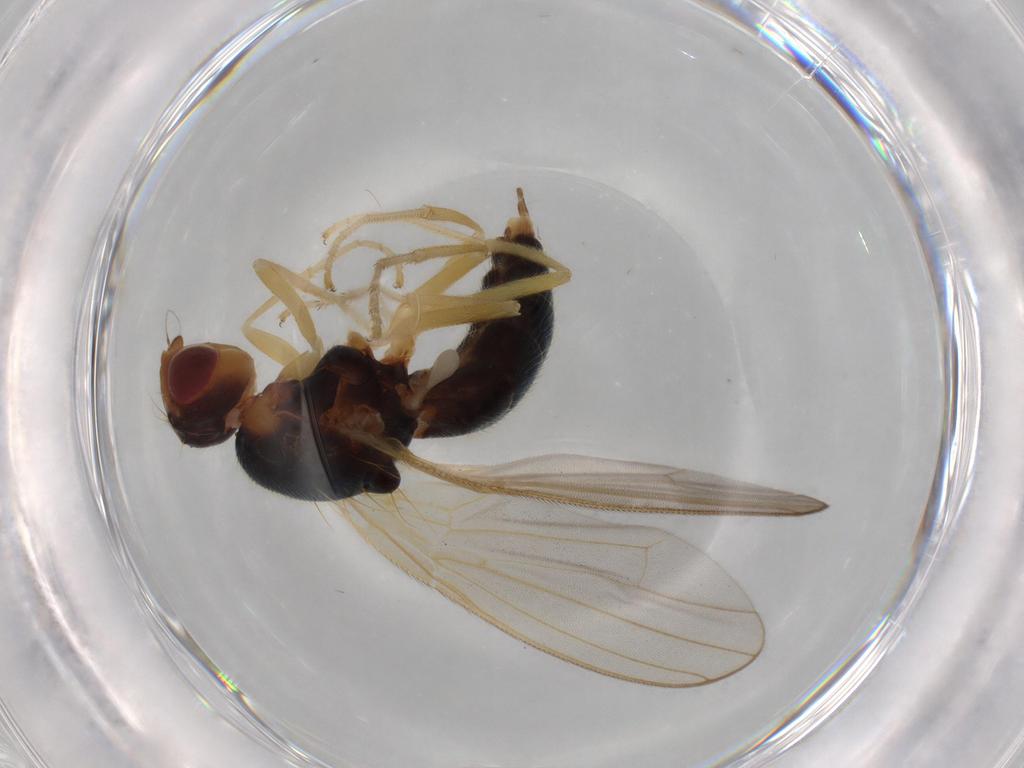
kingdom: Animalia
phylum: Arthropoda
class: Insecta
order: Diptera
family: Psilidae
